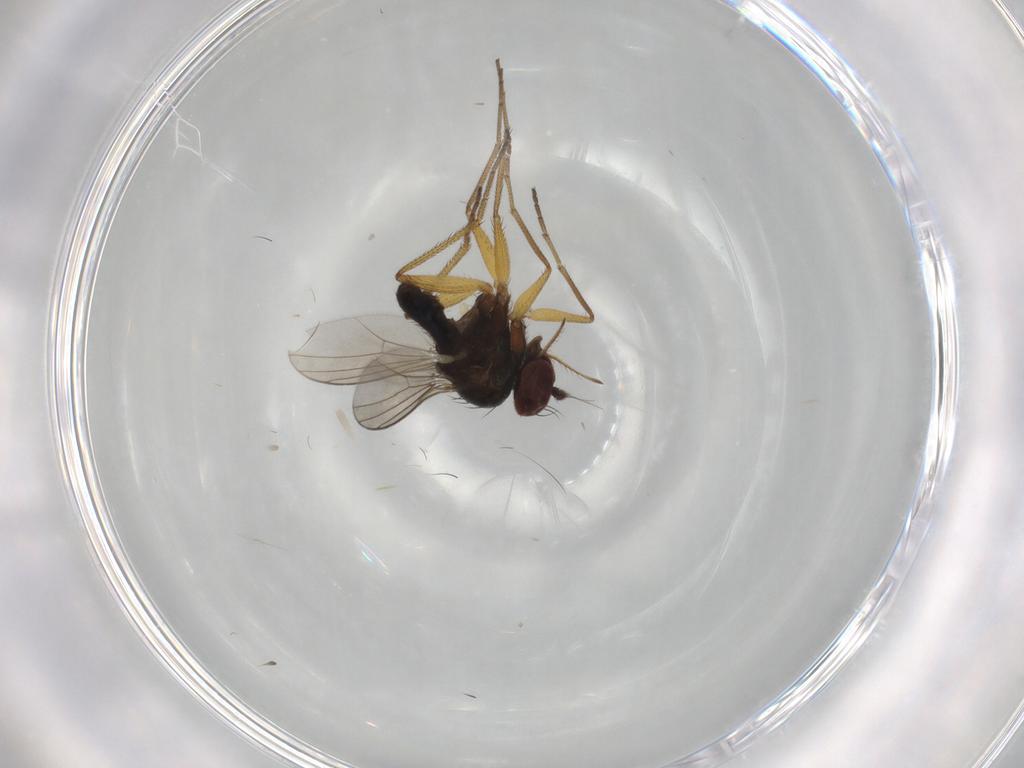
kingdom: Animalia
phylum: Arthropoda
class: Insecta
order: Diptera
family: Dolichopodidae
